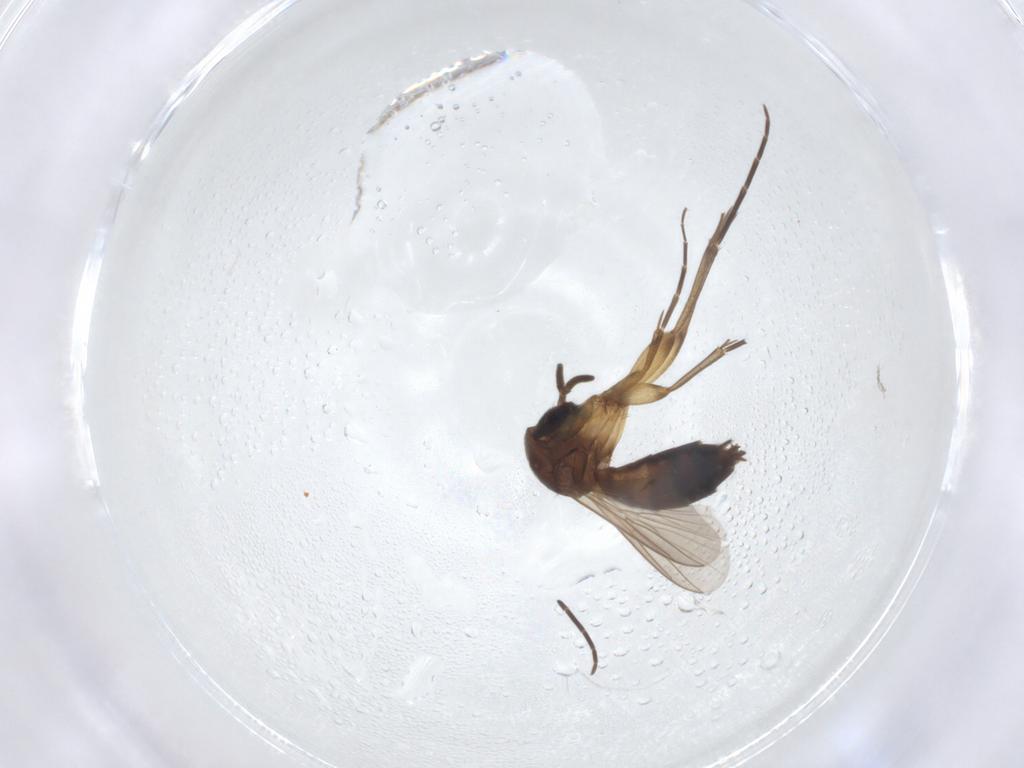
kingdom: Animalia
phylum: Arthropoda
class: Insecta
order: Diptera
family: Mycetophilidae
